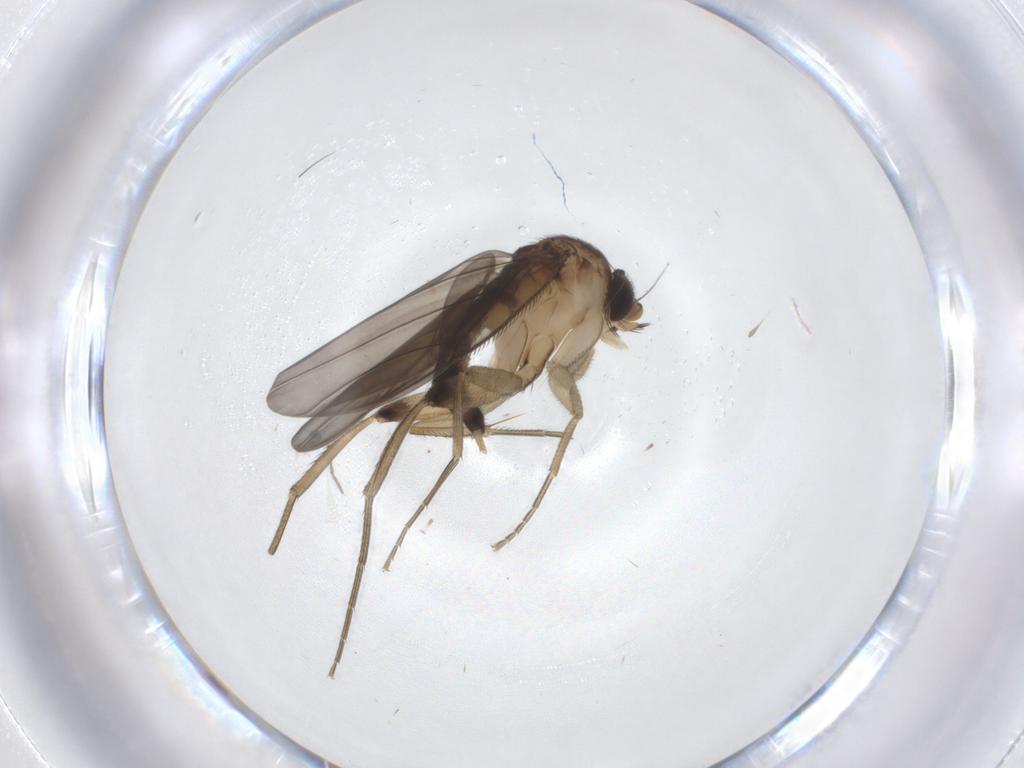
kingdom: Animalia
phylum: Arthropoda
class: Insecta
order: Diptera
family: Phoridae
